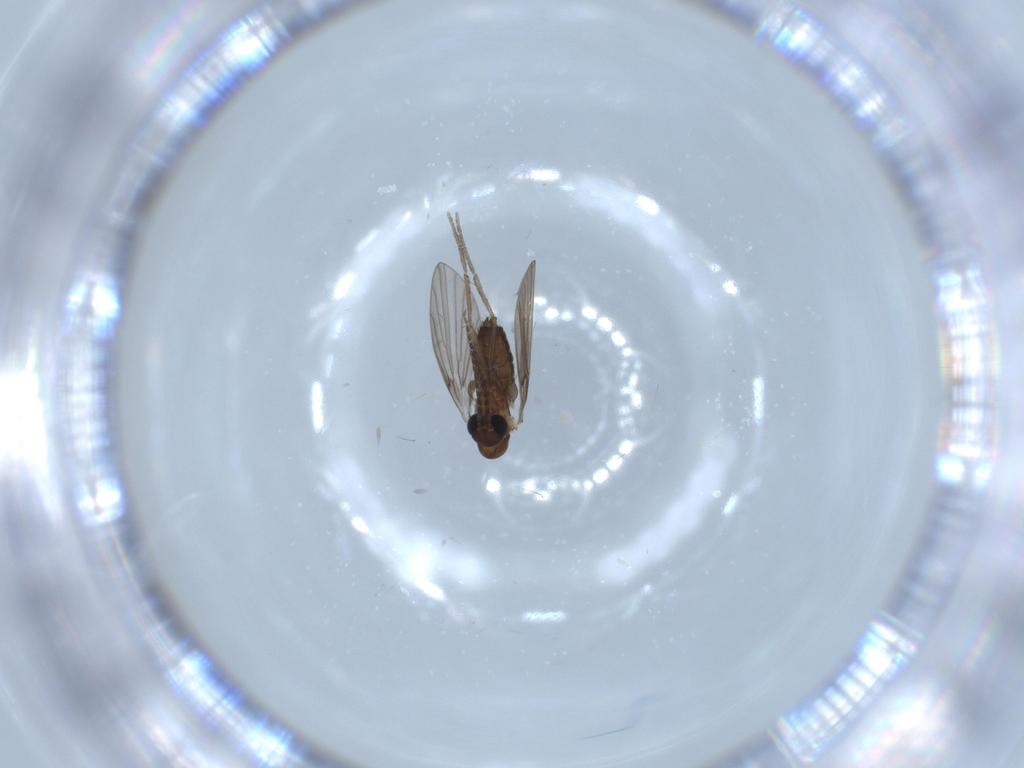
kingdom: Animalia
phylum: Arthropoda
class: Insecta
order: Diptera
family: Psychodidae
